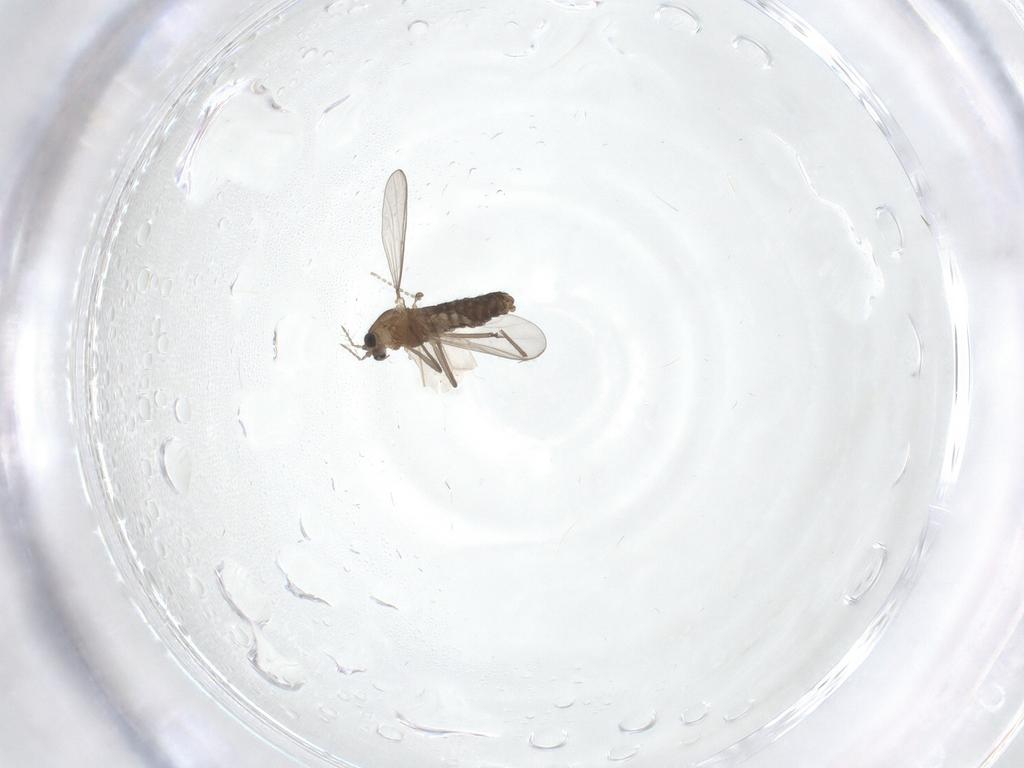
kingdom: Animalia
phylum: Arthropoda
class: Insecta
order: Diptera
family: Chironomidae
